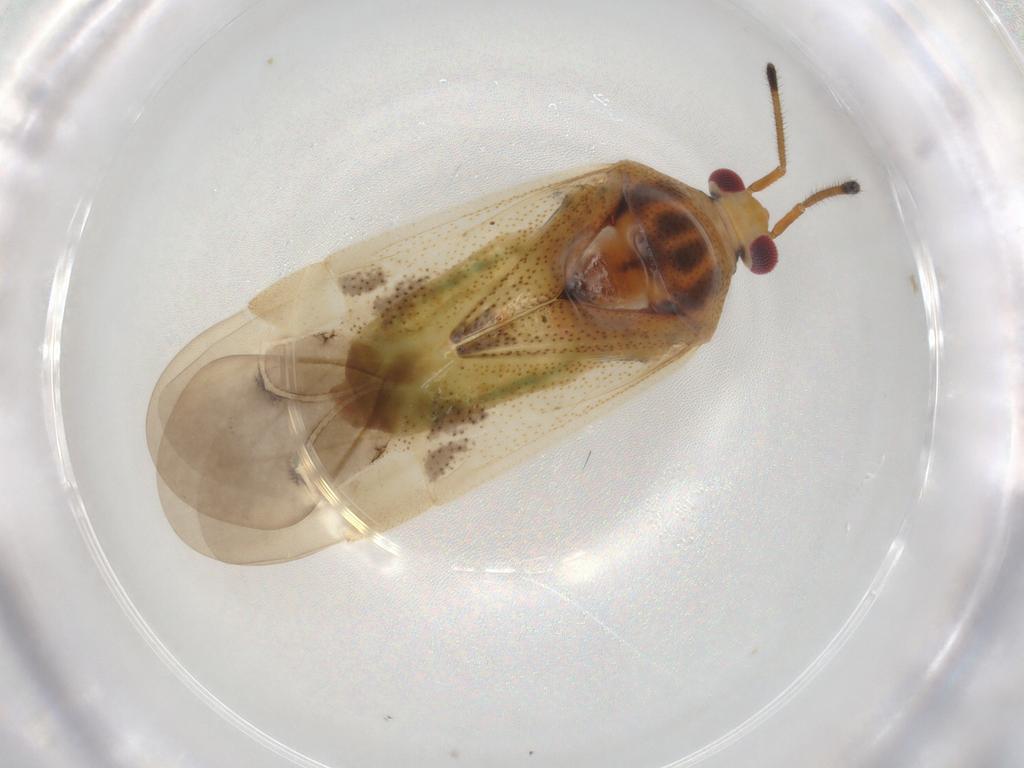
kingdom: Animalia
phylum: Arthropoda
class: Insecta
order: Hemiptera
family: Miridae
